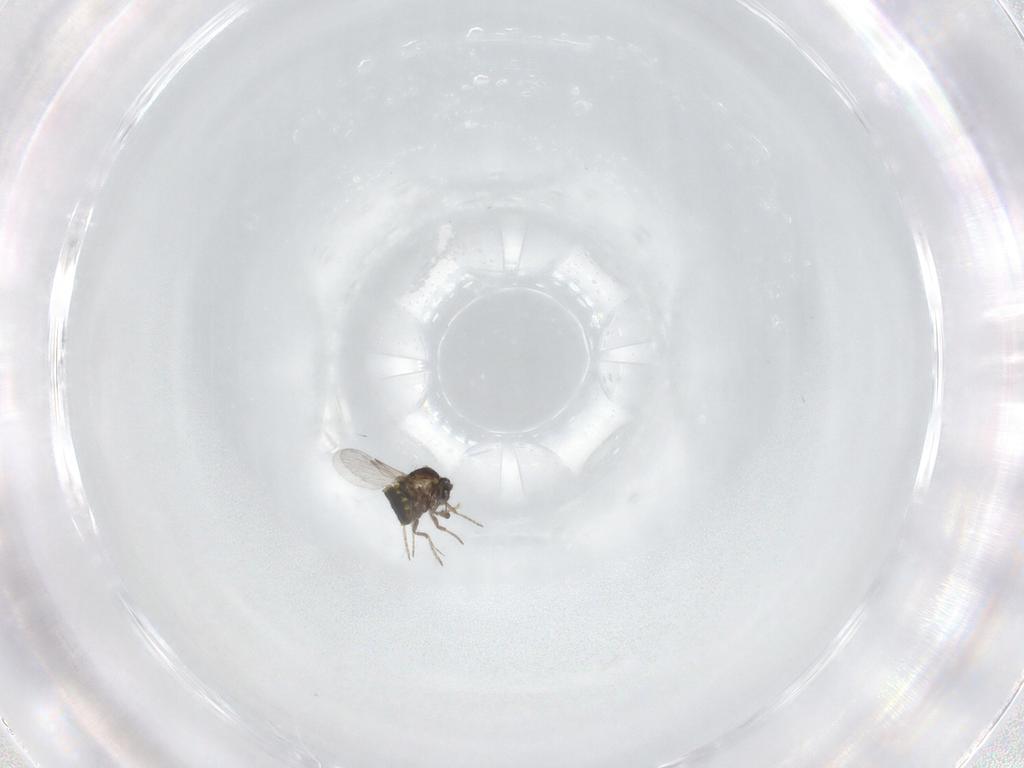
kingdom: Animalia
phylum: Arthropoda
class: Insecta
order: Diptera
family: Ceratopogonidae
